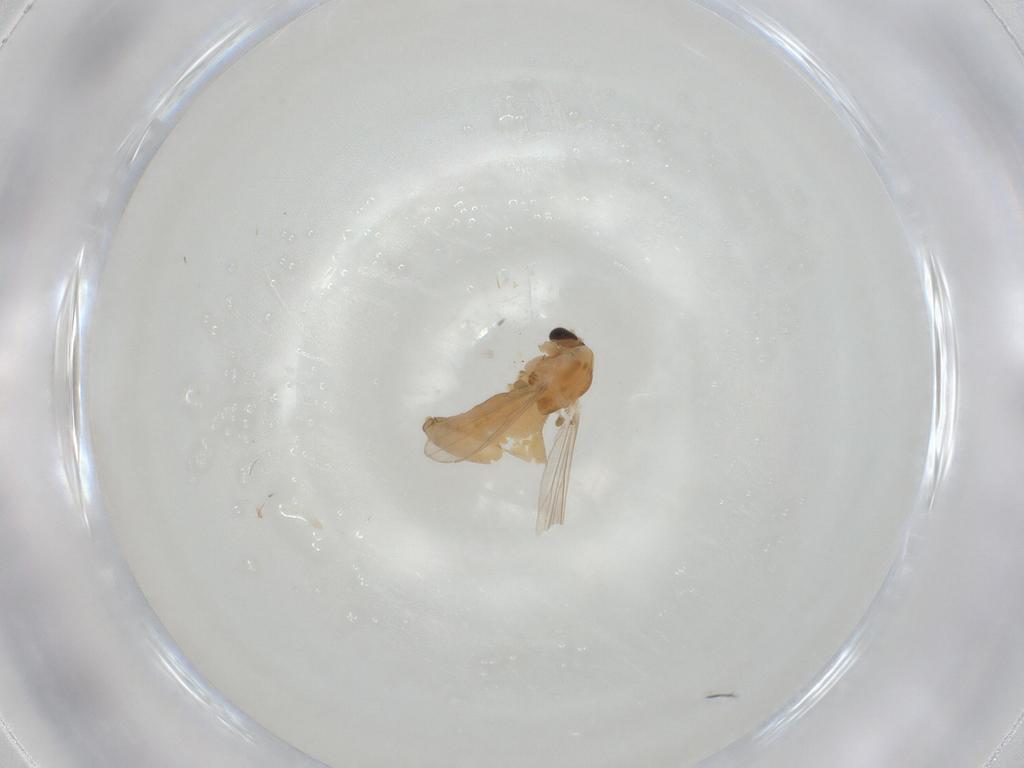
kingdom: Animalia
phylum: Arthropoda
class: Insecta
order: Diptera
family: Chironomidae
